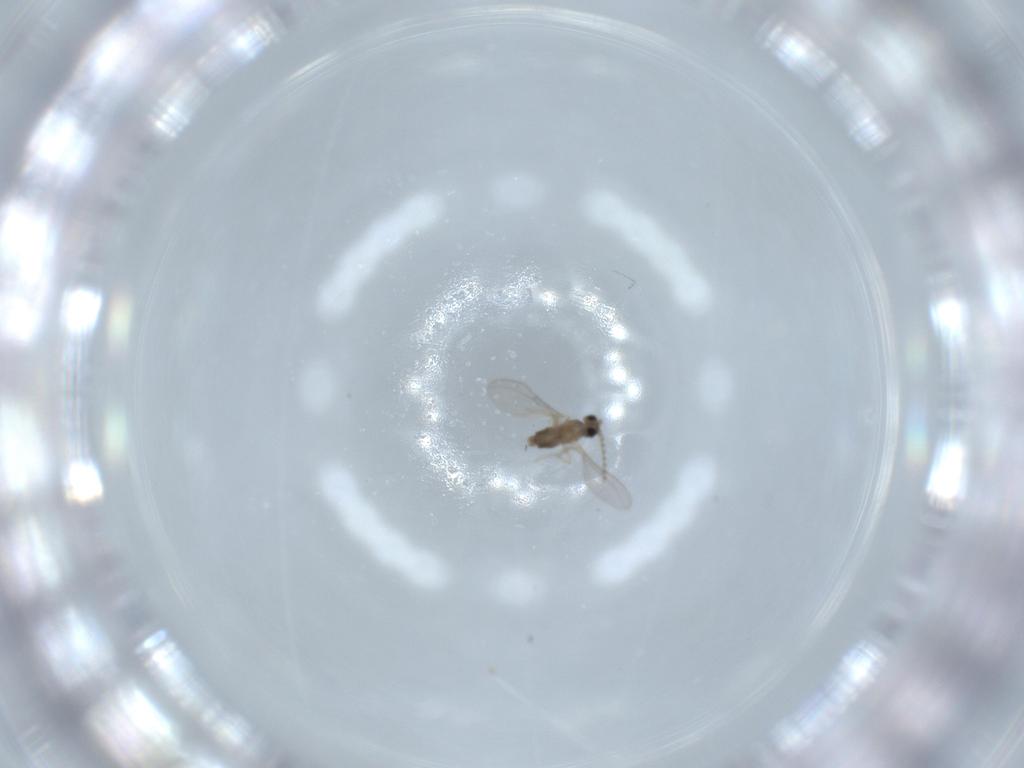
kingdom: Animalia
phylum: Arthropoda
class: Insecta
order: Diptera
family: Cecidomyiidae
